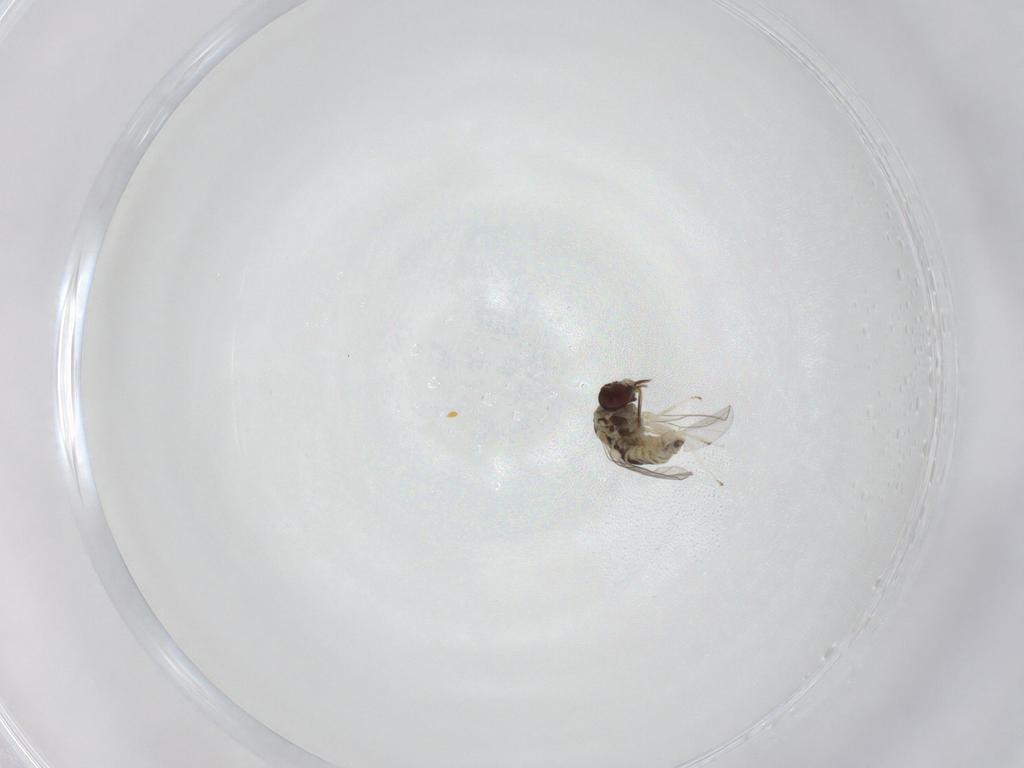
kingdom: Animalia
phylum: Arthropoda
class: Insecta
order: Diptera
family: Mythicomyiidae
